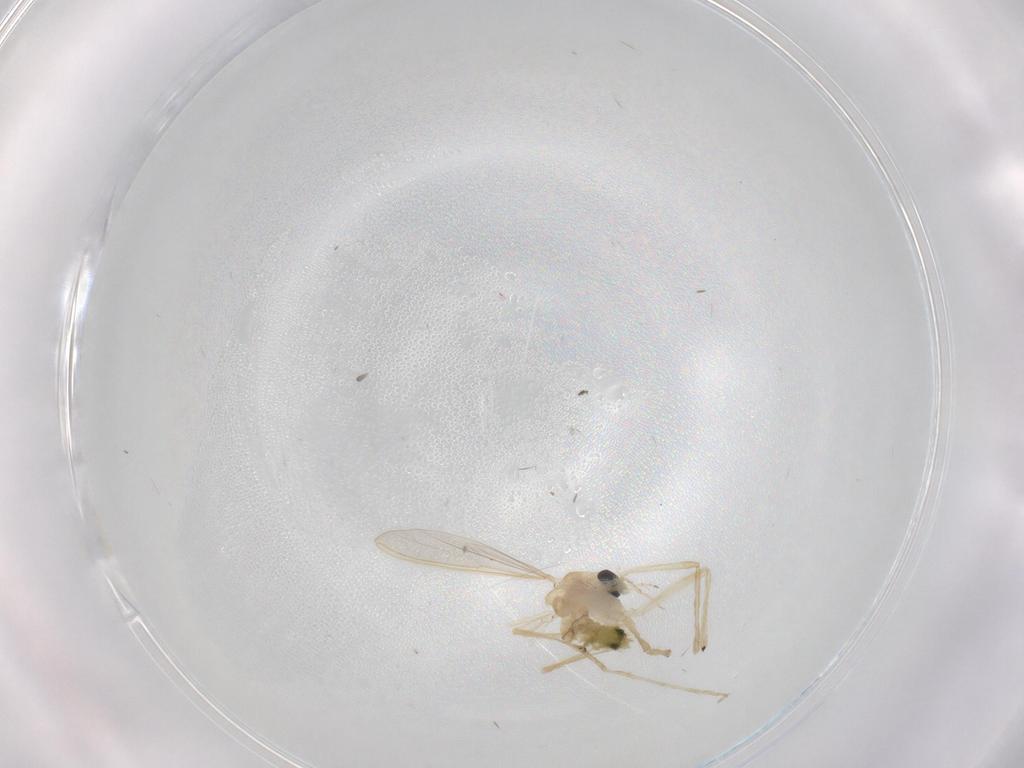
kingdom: Animalia
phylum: Arthropoda
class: Insecta
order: Diptera
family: Chironomidae
